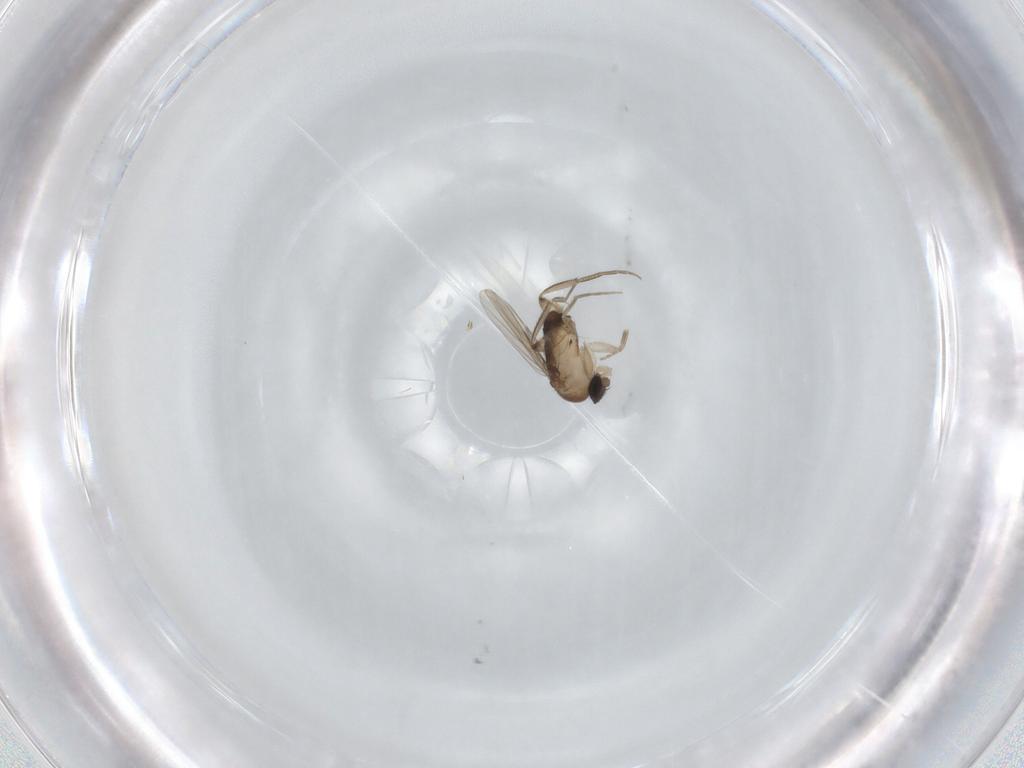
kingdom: Animalia
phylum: Arthropoda
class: Insecta
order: Diptera
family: Phoridae
